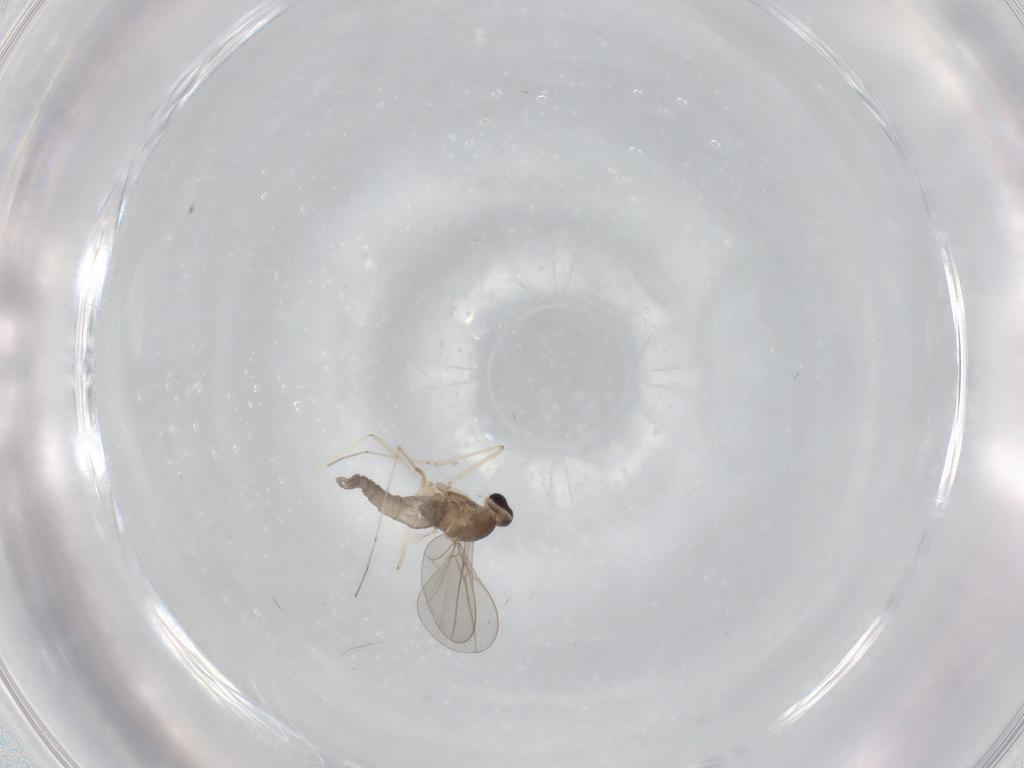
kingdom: Animalia
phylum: Arthropoda
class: Insecta
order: Diptera
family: Cecidomyiidae
